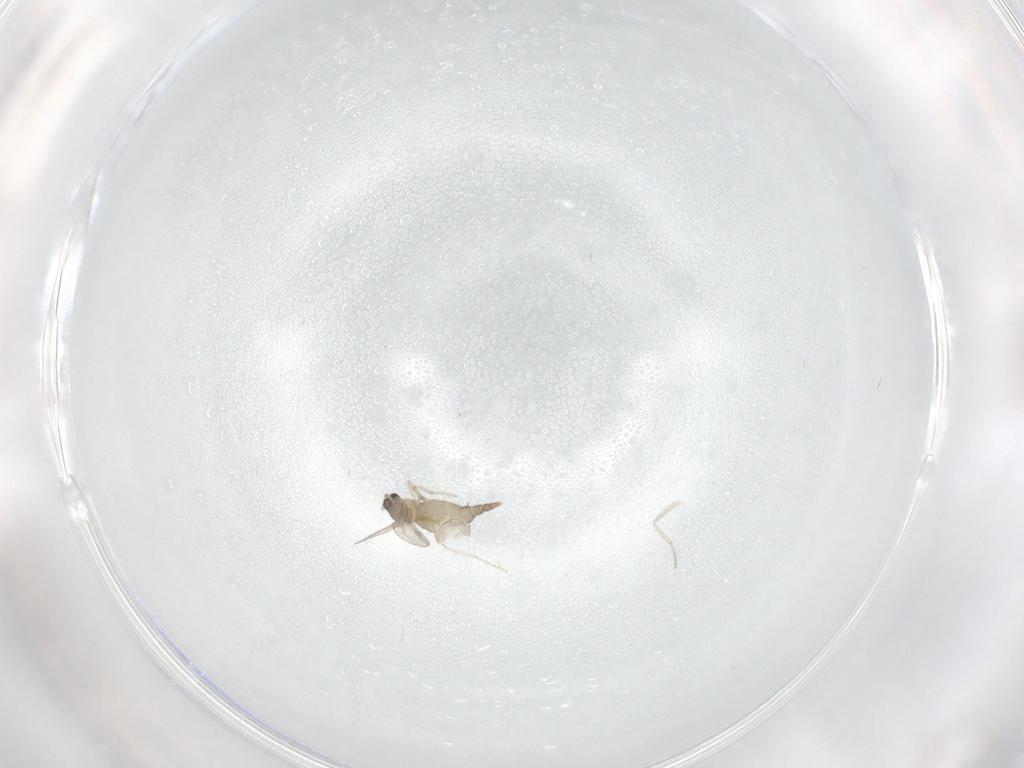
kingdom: Animalia
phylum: Arthropoda
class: Insecta
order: Diptera
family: Cecidomyiidae
